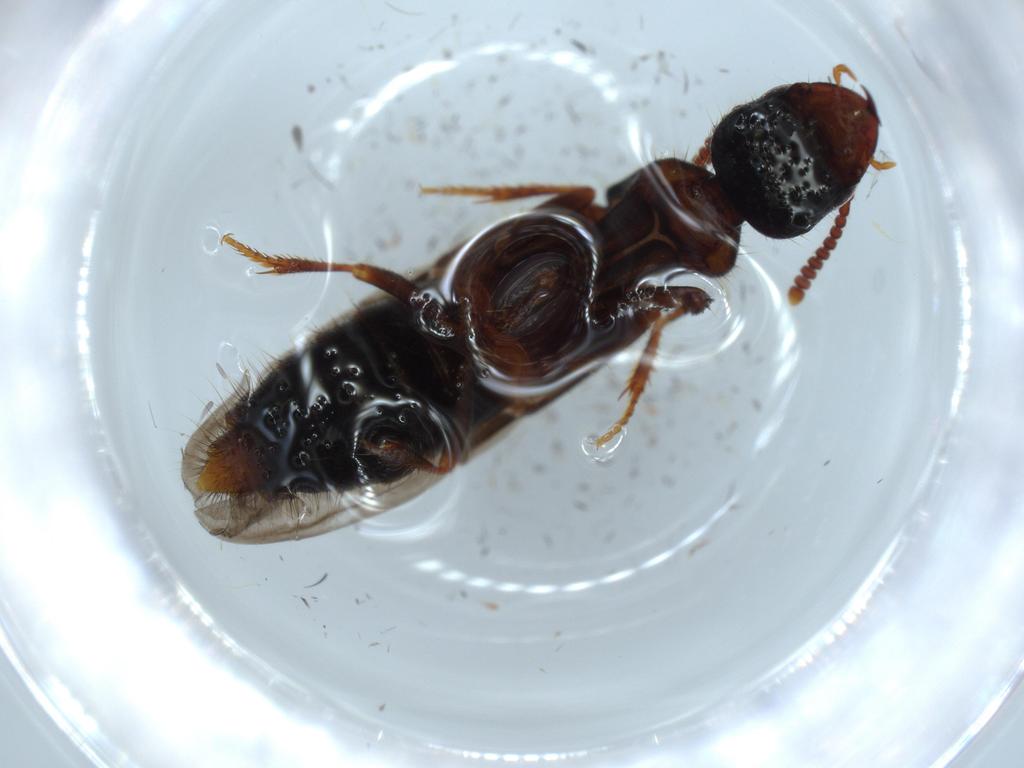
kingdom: Animalia
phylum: Arthropoda
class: Insecta
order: Coleoptera
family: Staphylinidae
